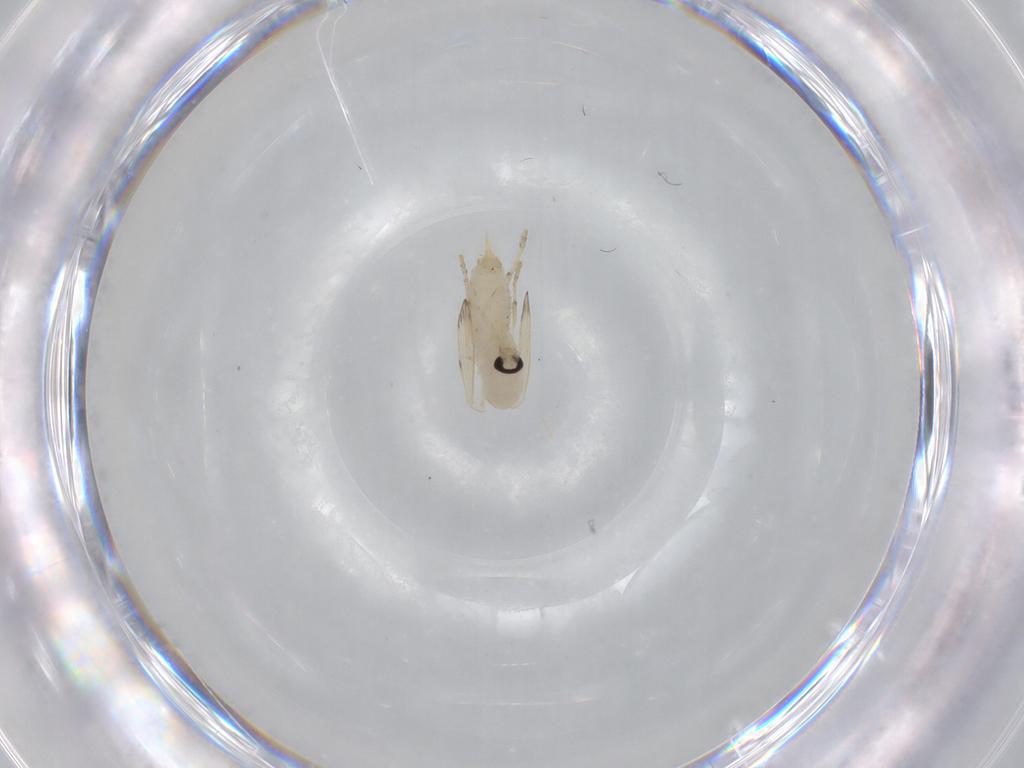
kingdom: Animalia
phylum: Arthropoda
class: Insecta
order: Diptera
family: Psychodidae
